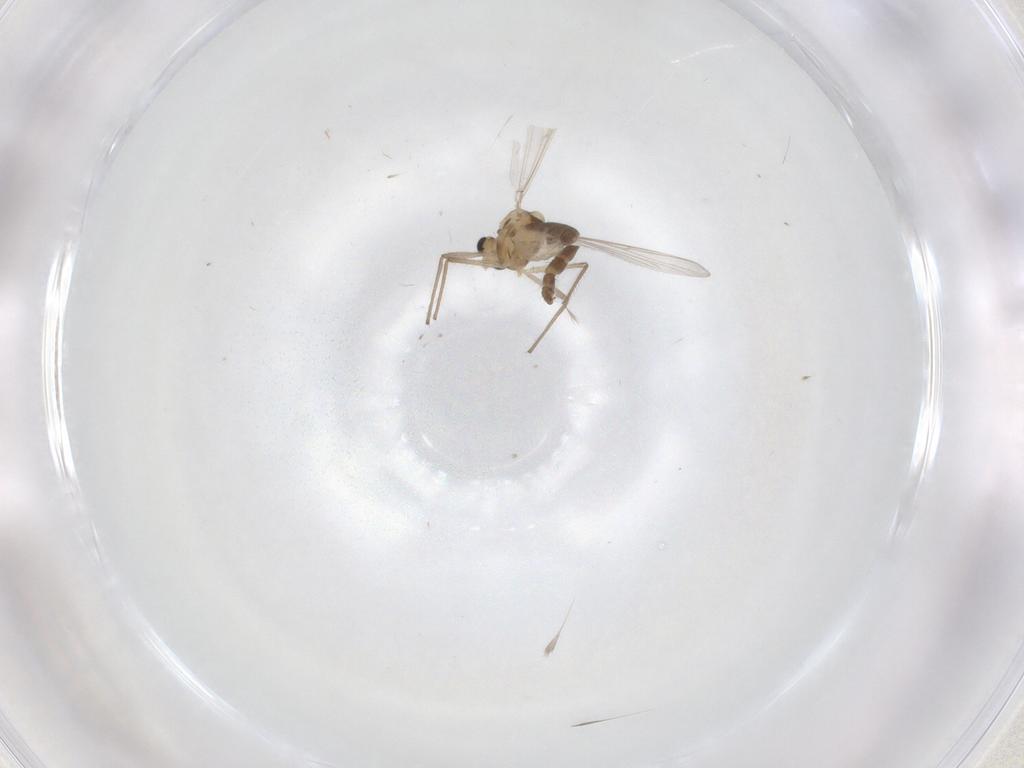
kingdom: Animalia
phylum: Arthropoda
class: Insecta
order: Diptera
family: Chironomidae
